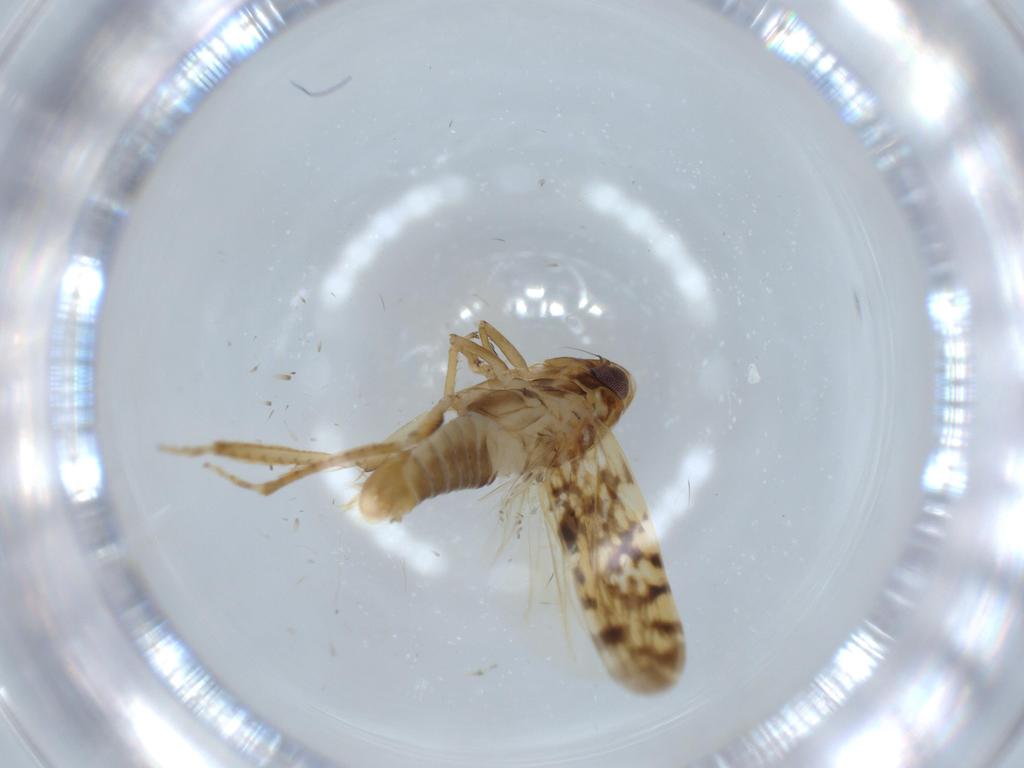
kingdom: Animalia
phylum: Arthropoda
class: Insecta
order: Hemiptera
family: Cicadellidae
